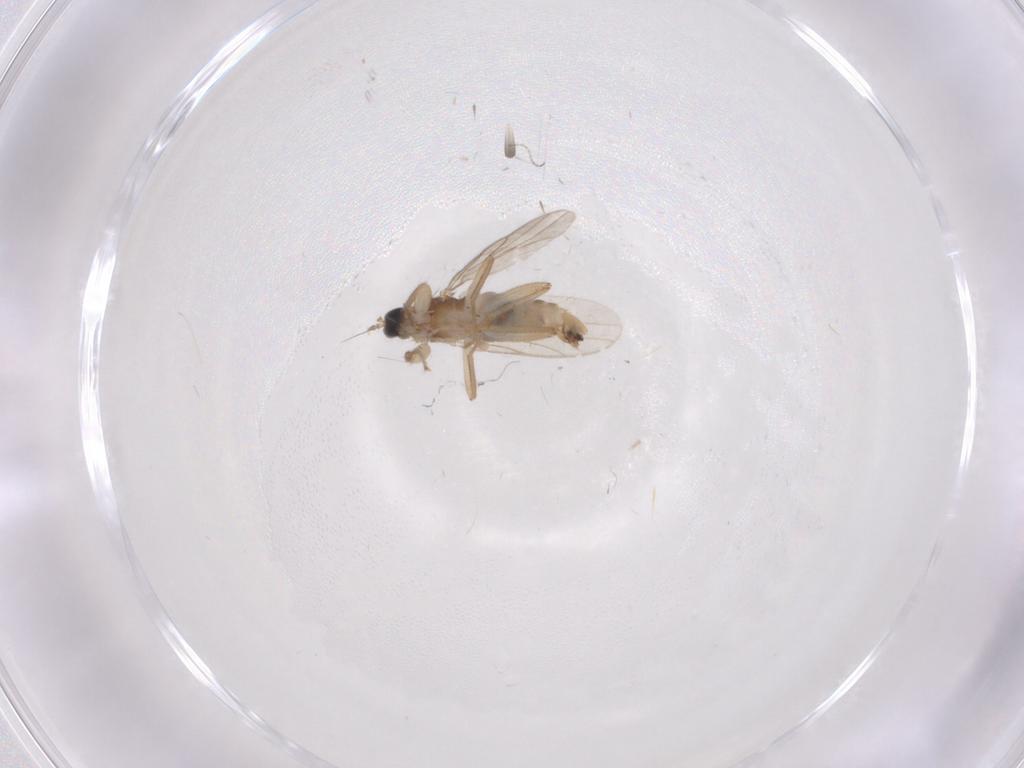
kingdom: Animalia
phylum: Arthropoda
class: Insecta
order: Diptera
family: Hybotidae
